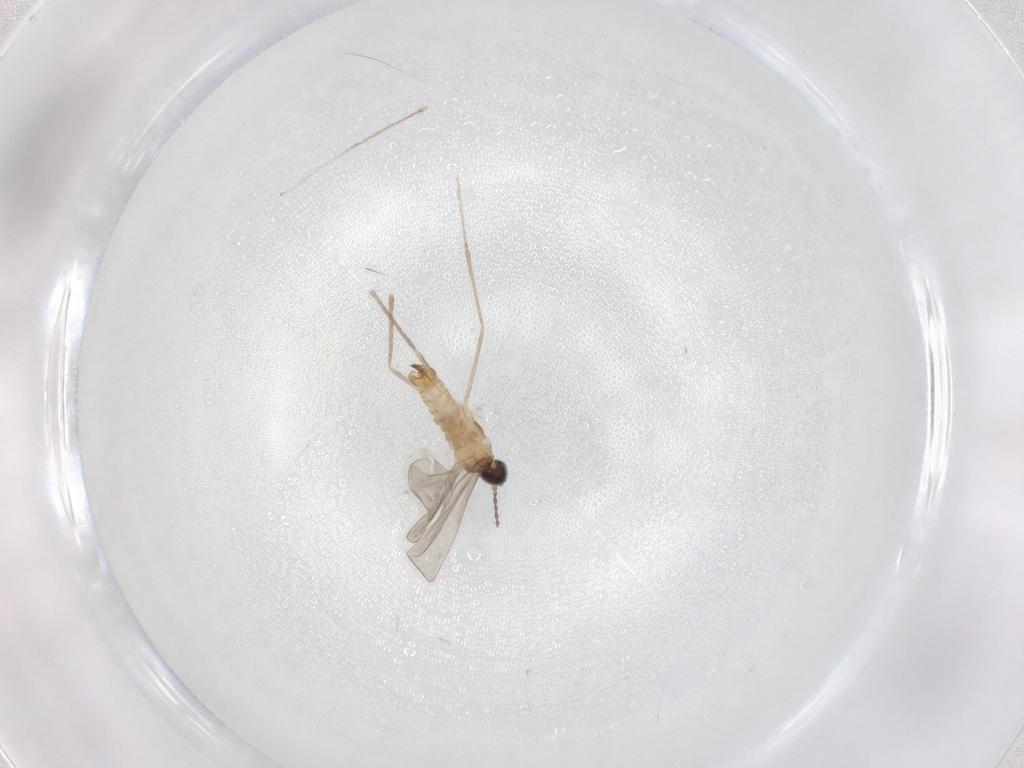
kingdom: Animalia
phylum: Arthropoda
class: Insecta
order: Diptera
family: Cecidomyiidae
